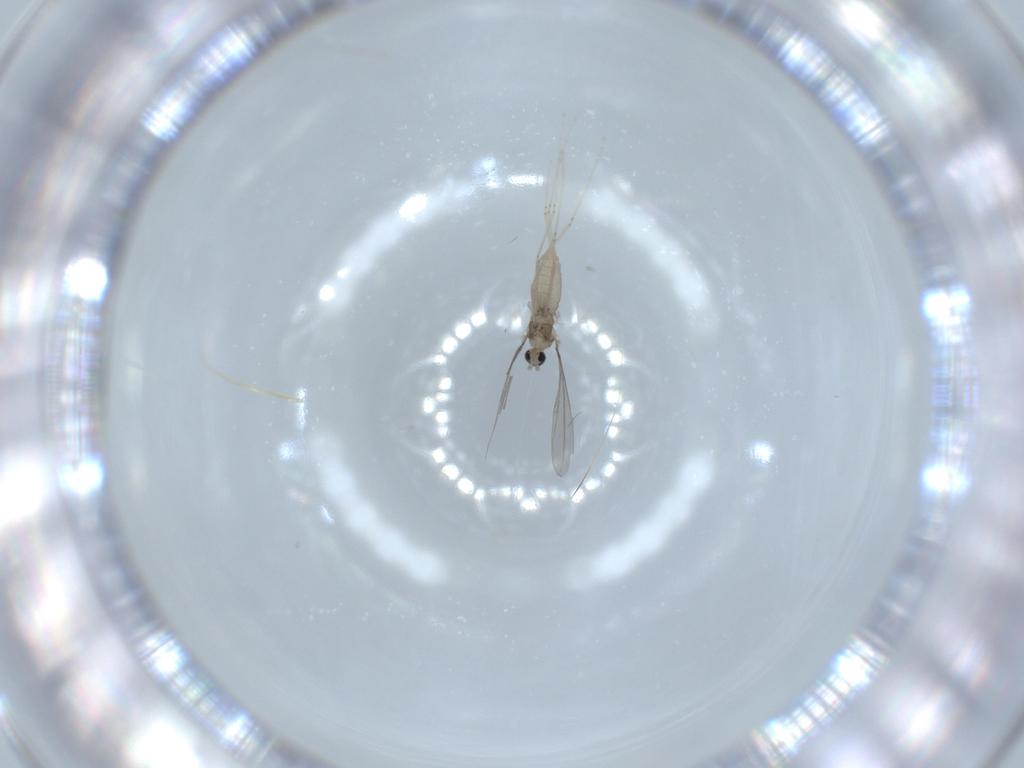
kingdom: Animalia
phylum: Arthropoda
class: Insecta
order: Diptera
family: Cecidomyiidae
